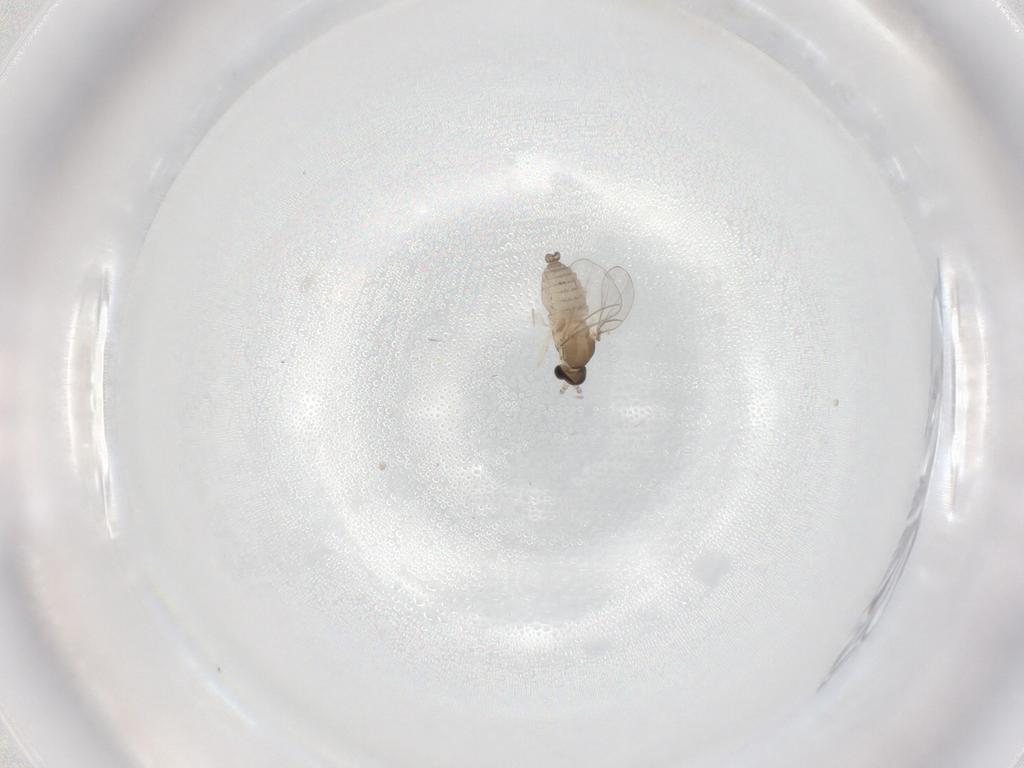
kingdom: Animalia
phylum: Arthropoda
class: Insecta
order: Diptera
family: Cecidomyiidae
